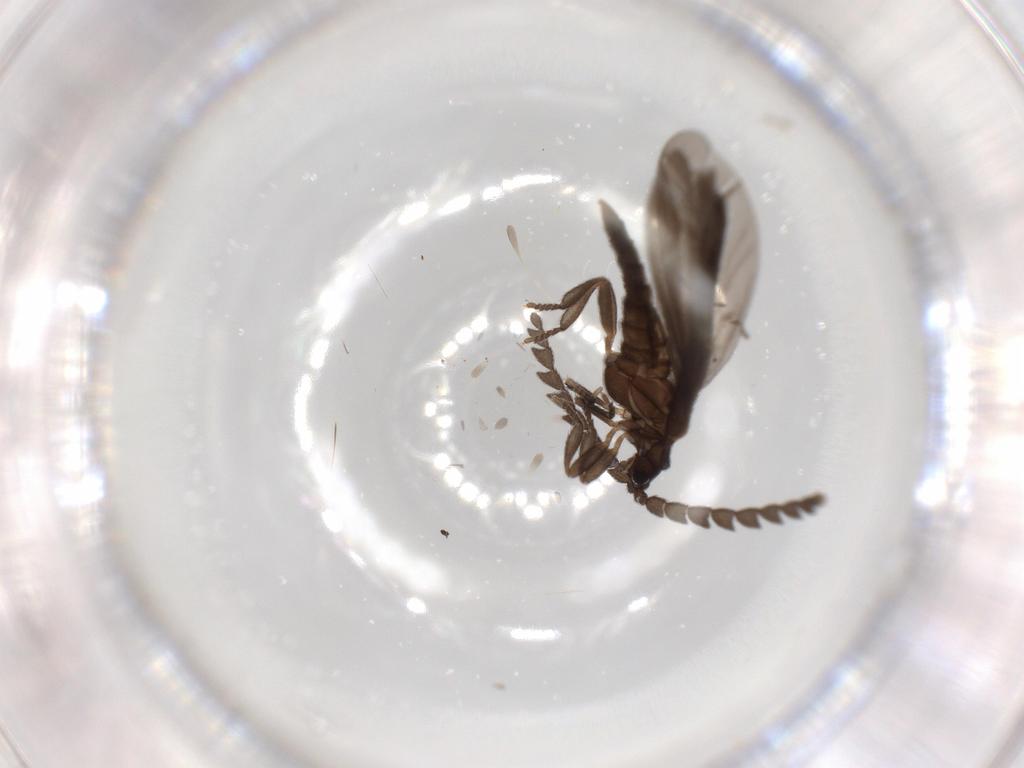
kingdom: Animalia
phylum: Arthropoda
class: Insecta
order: Coleoptera
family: Lycidae
